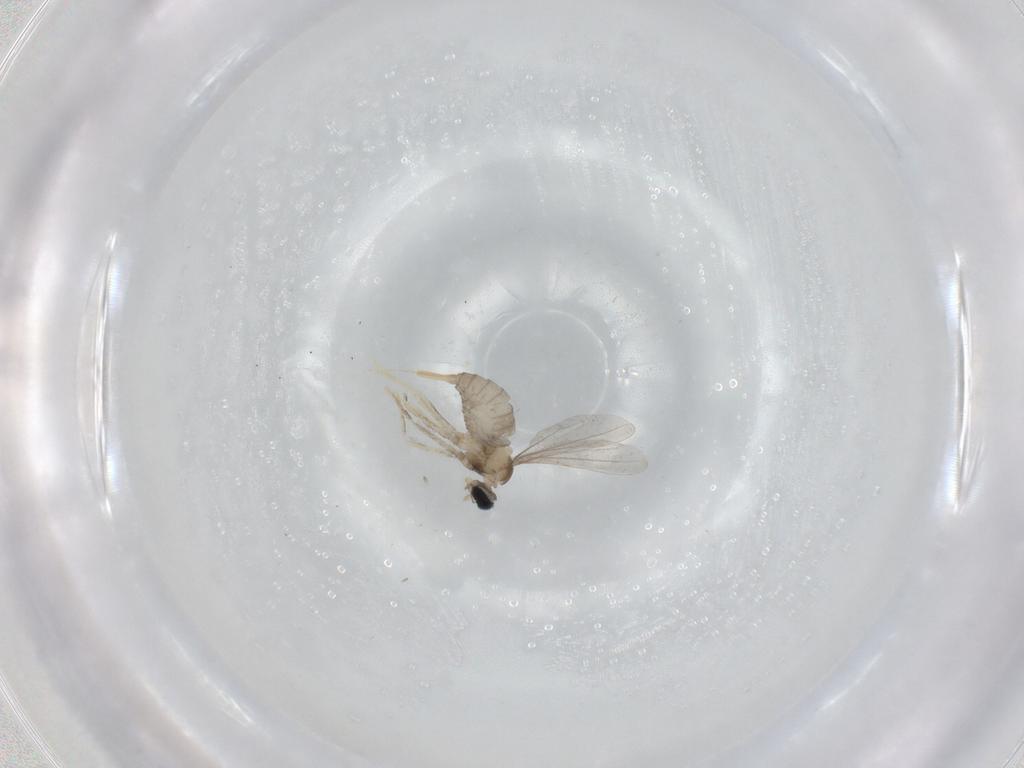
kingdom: Animalia
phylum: Arthropoda
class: Insecta
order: Diptera
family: Cecidomyiidae
